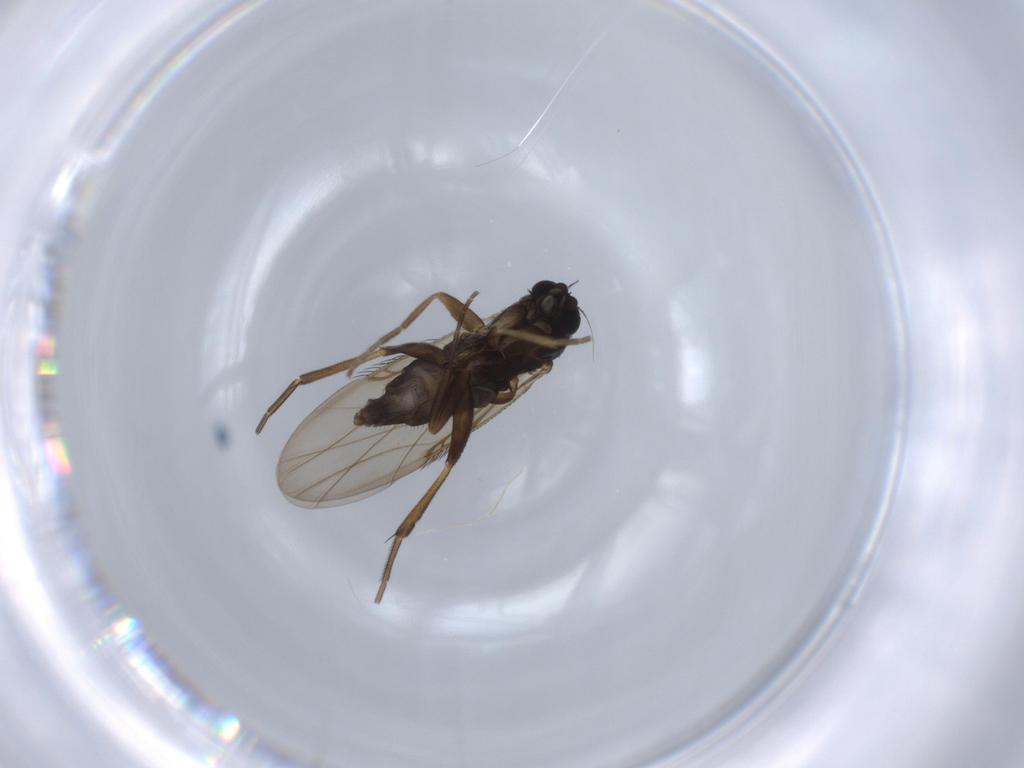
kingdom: Animalia
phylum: Arthropoda
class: Insecta
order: Diptera
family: Phoridae
